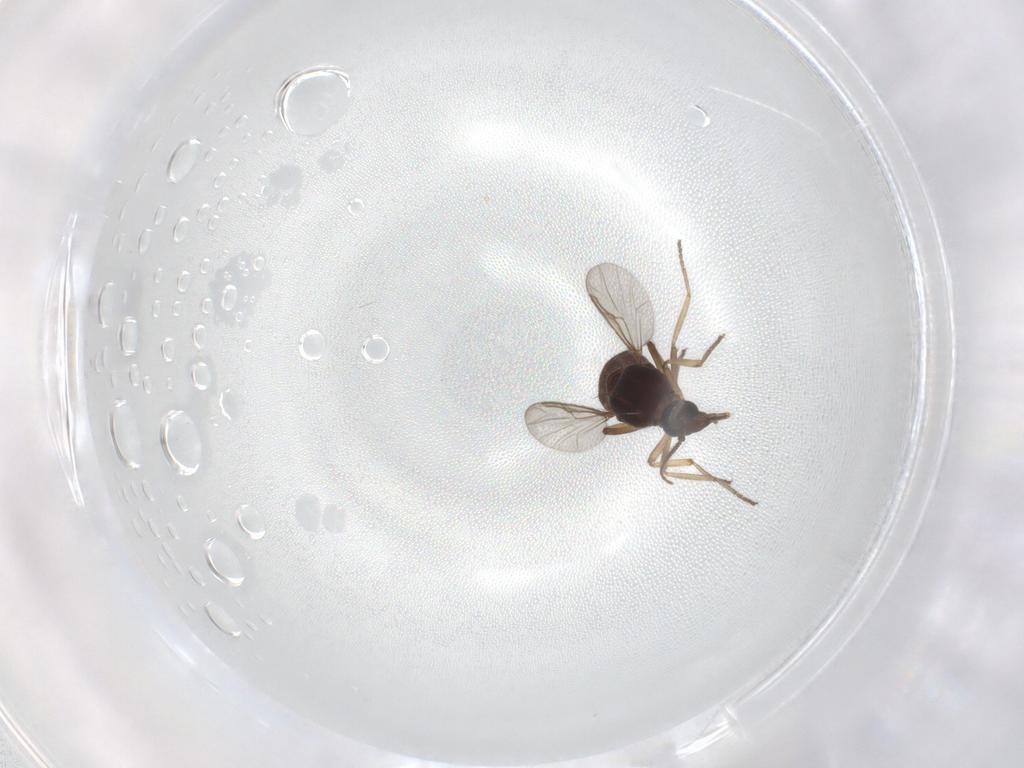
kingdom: Animalia
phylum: Arthropoda
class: Insecta
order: Diptera
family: Ceratopogonidae
